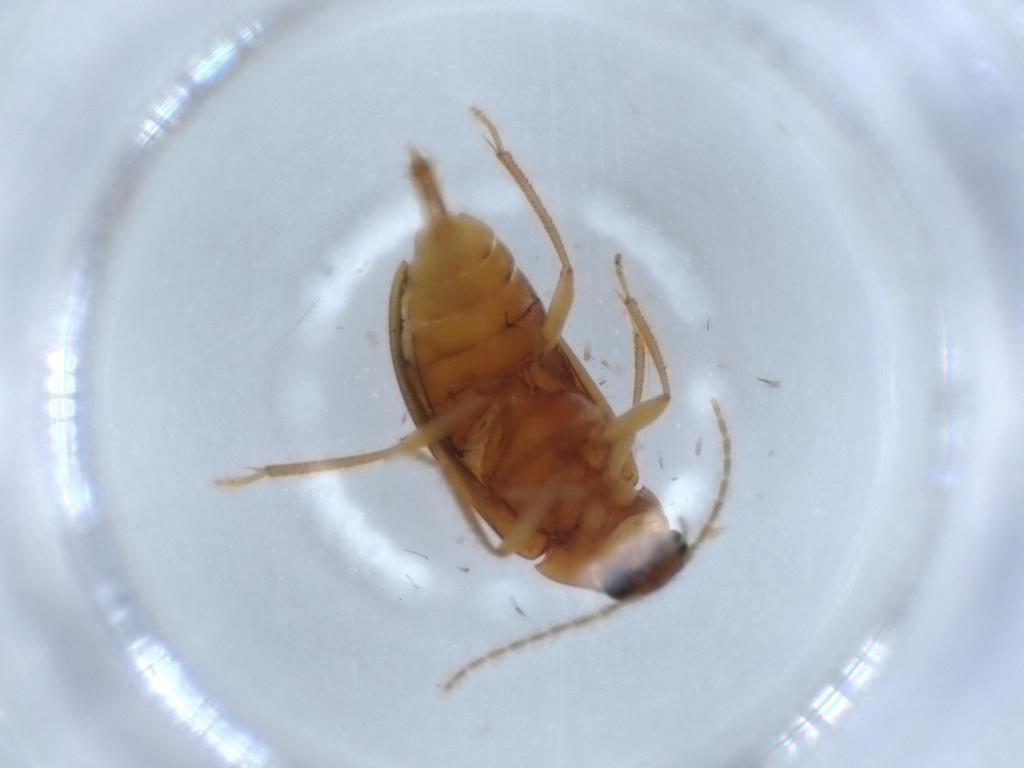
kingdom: Animalia
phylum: Arthropoda
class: Insecta
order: Coleoptera
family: Ptilodactylidae
